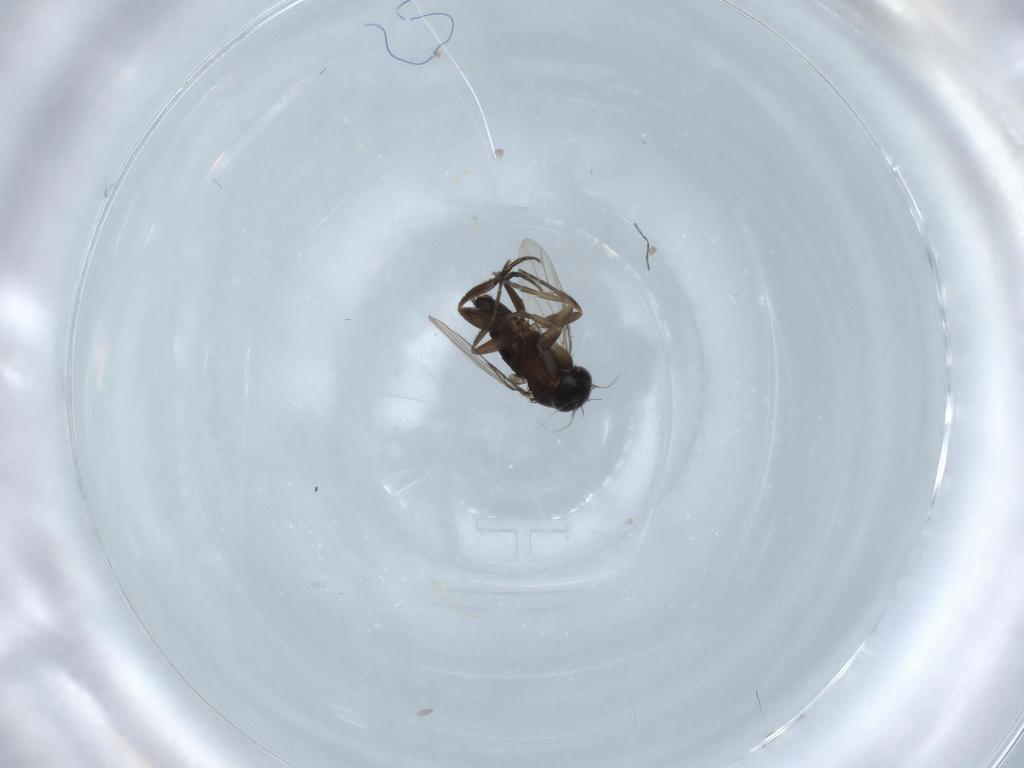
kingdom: Animalia
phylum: Arthropoda
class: Insecta
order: Diptera
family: Phoridae
